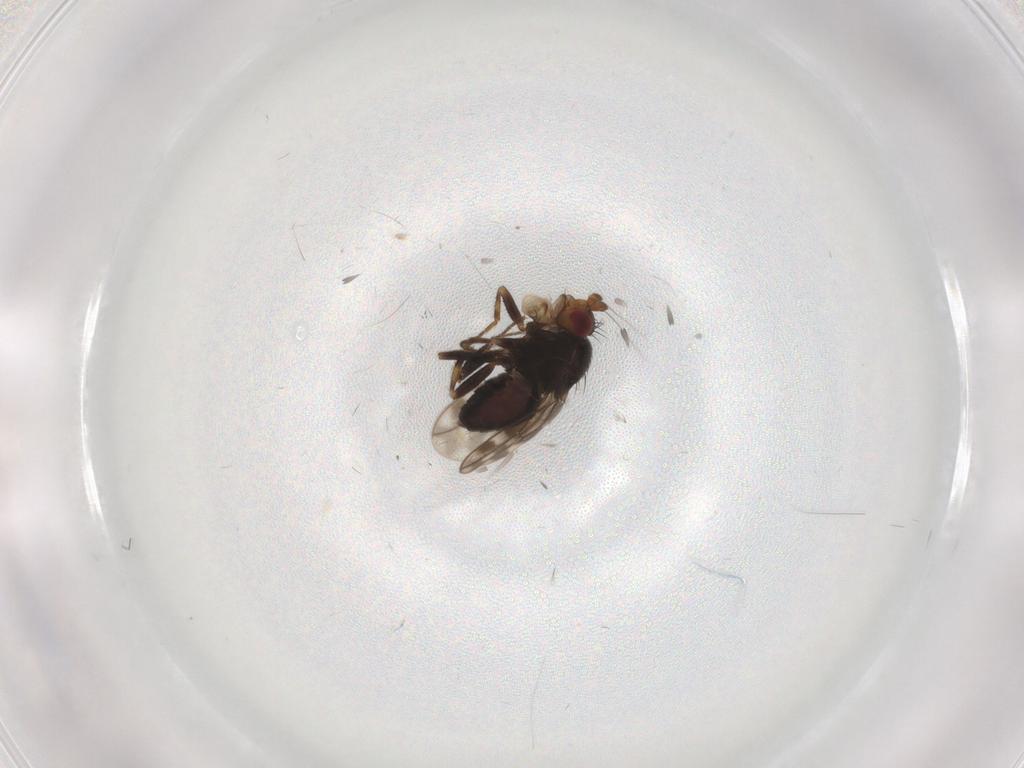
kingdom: Animalia
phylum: Arthropoda
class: Insecta
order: Diptera
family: Sphaeroceridae
